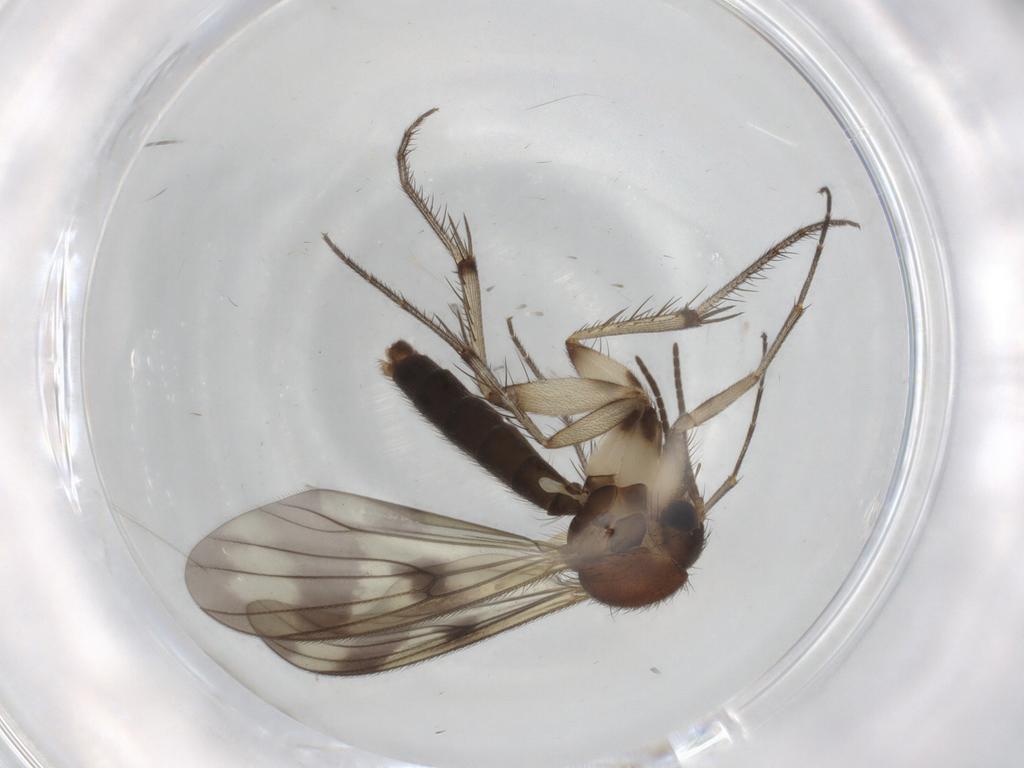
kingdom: Animalia
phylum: Arthropoda
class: Insecta
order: Diptera
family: Mycetophilidae
